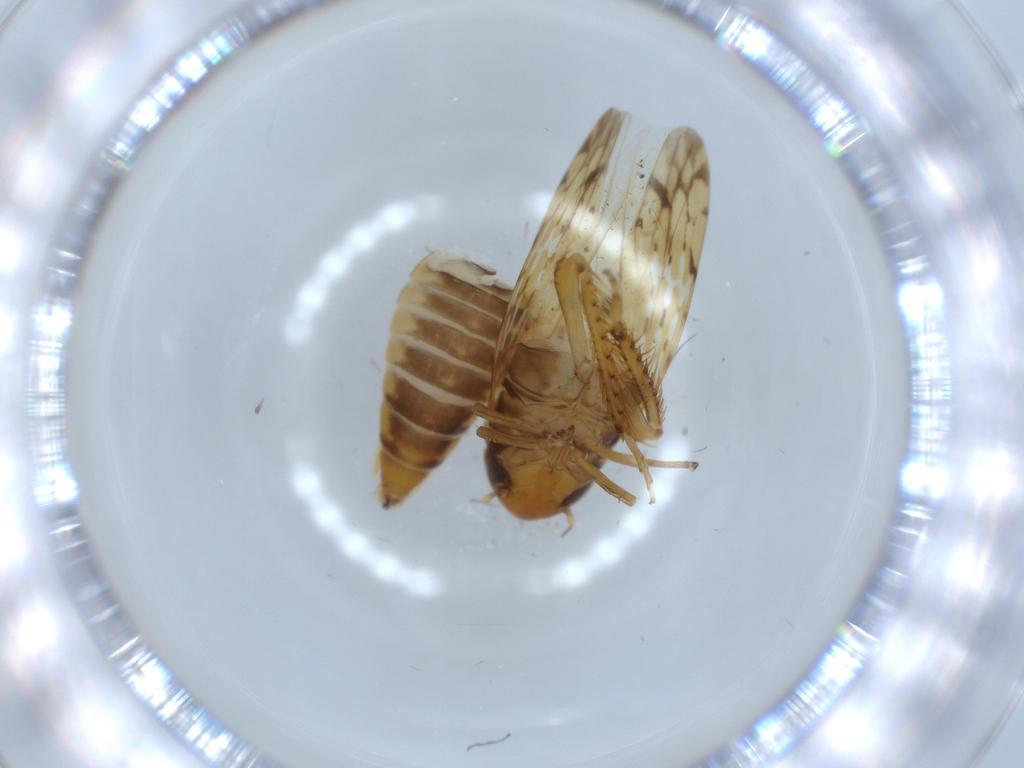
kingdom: Animalia
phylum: Arthropoda
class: Insecta
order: Hemiptera
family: Cicadellidae
